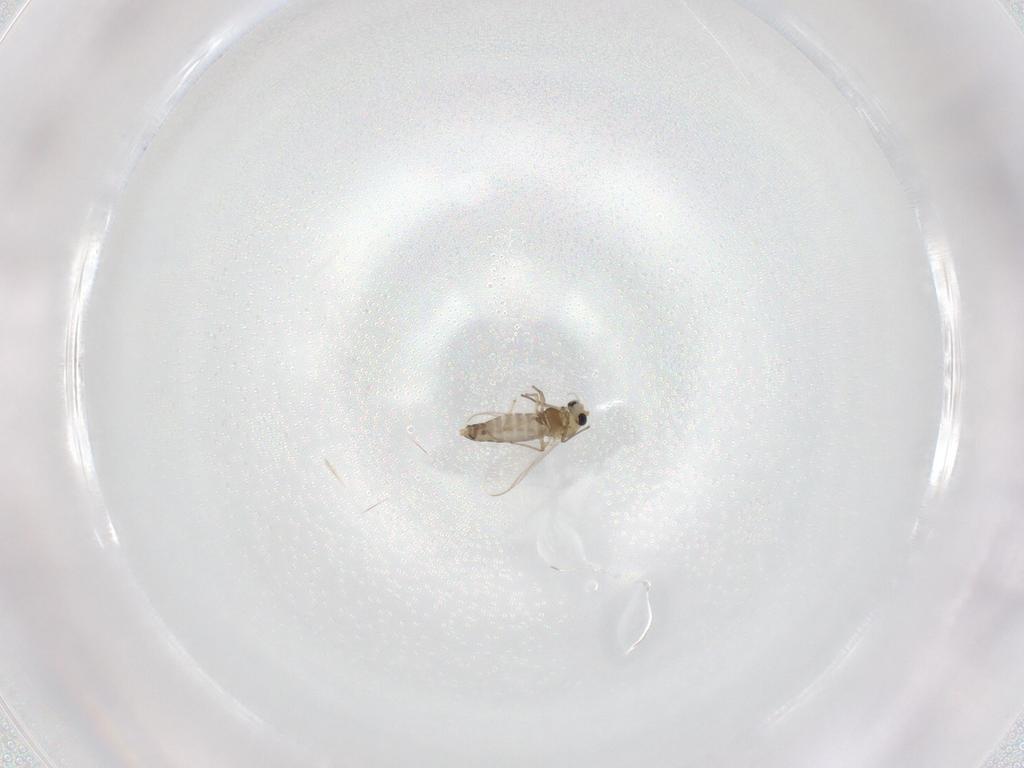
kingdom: Animalia
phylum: Arthropoda
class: Insecta
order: Diptera
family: Chironomidae
